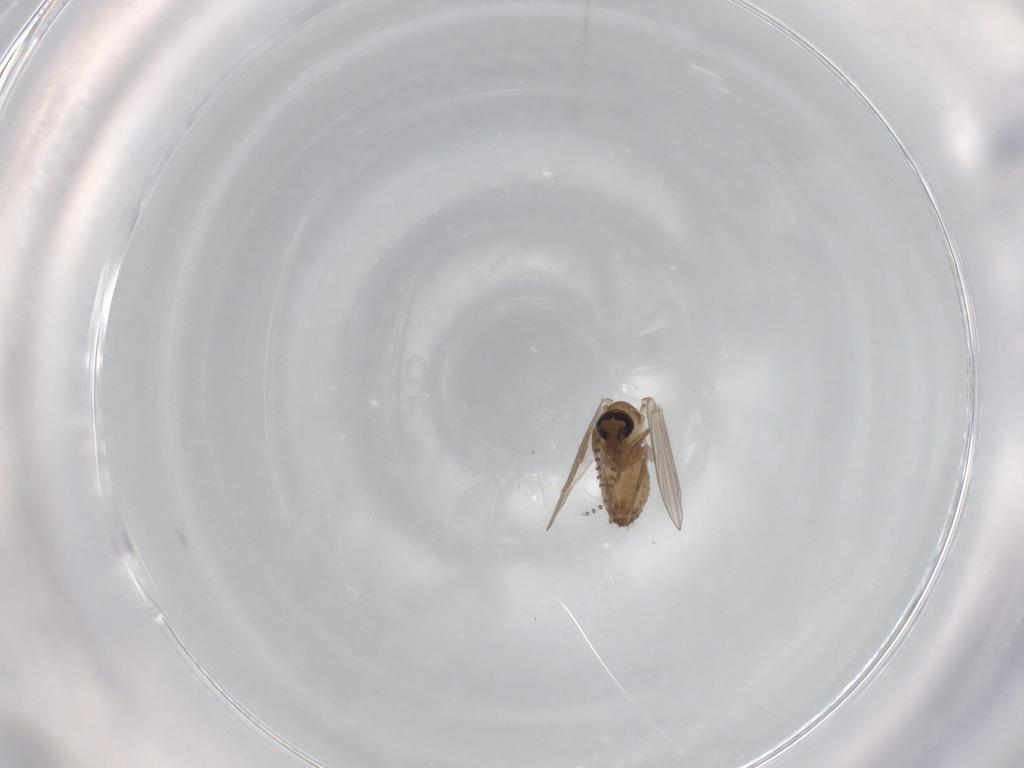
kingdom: Animalia
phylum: Arthropoda
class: Insecta
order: Diptera
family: Psychodidae
